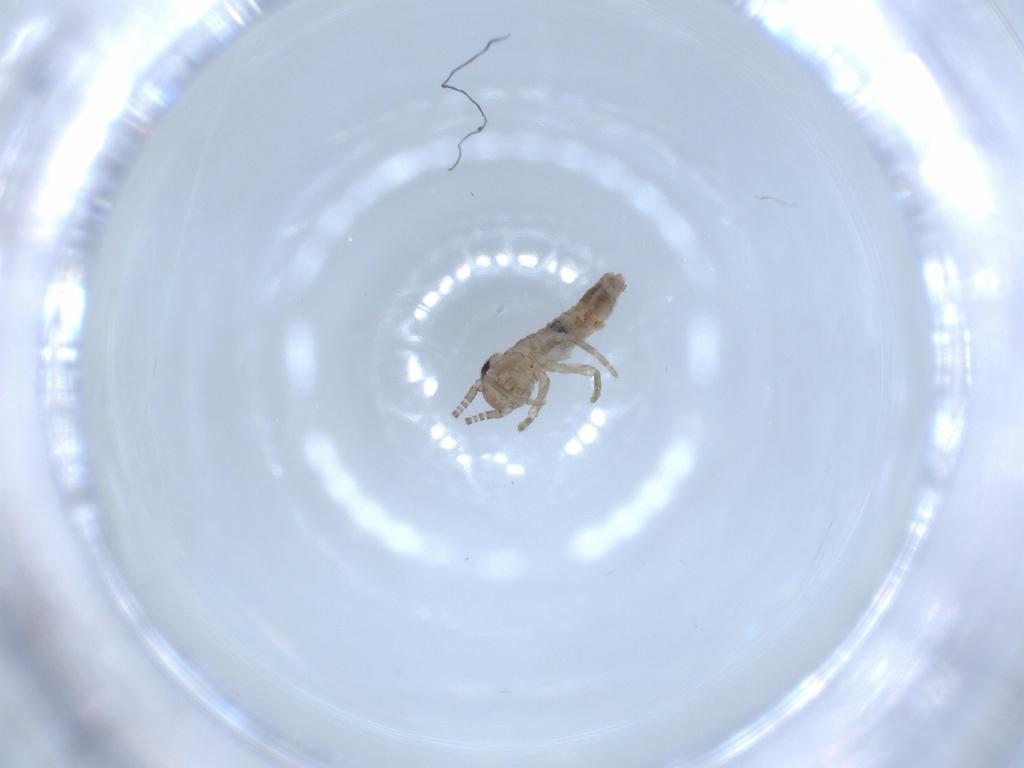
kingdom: Animalia
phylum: Arthropoda
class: Insecta
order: Orthoptera
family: Gryllidae
